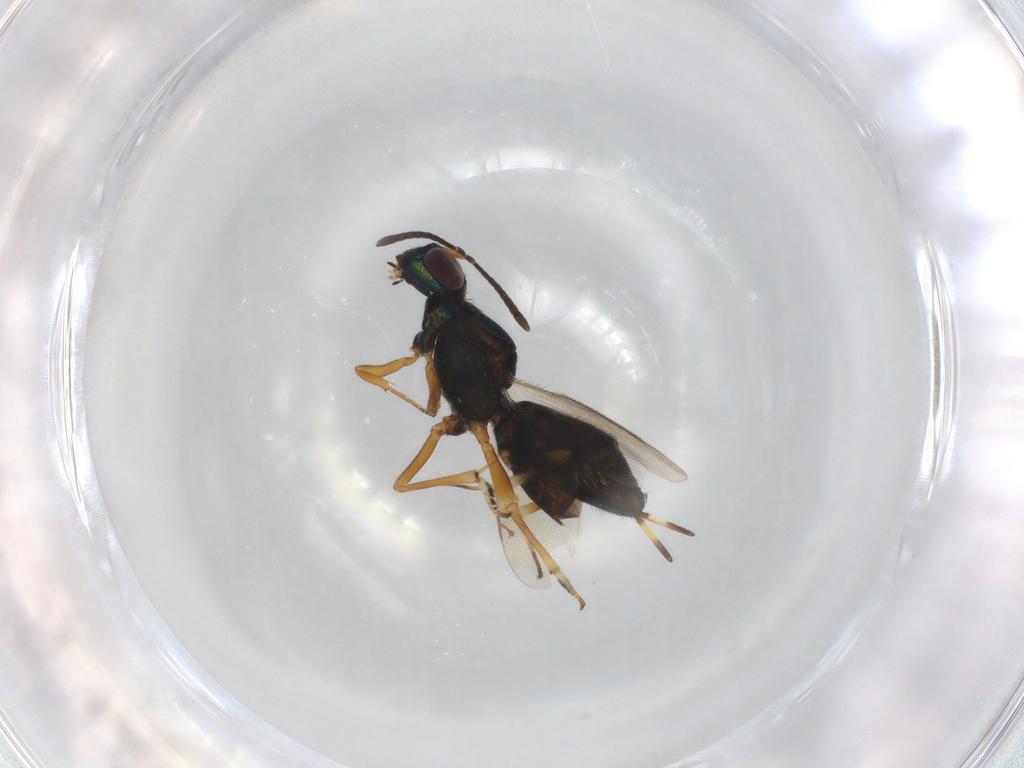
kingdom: Animalia
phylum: Arthropoda
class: Insecta
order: Hymenoptera
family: Eupelmidae
